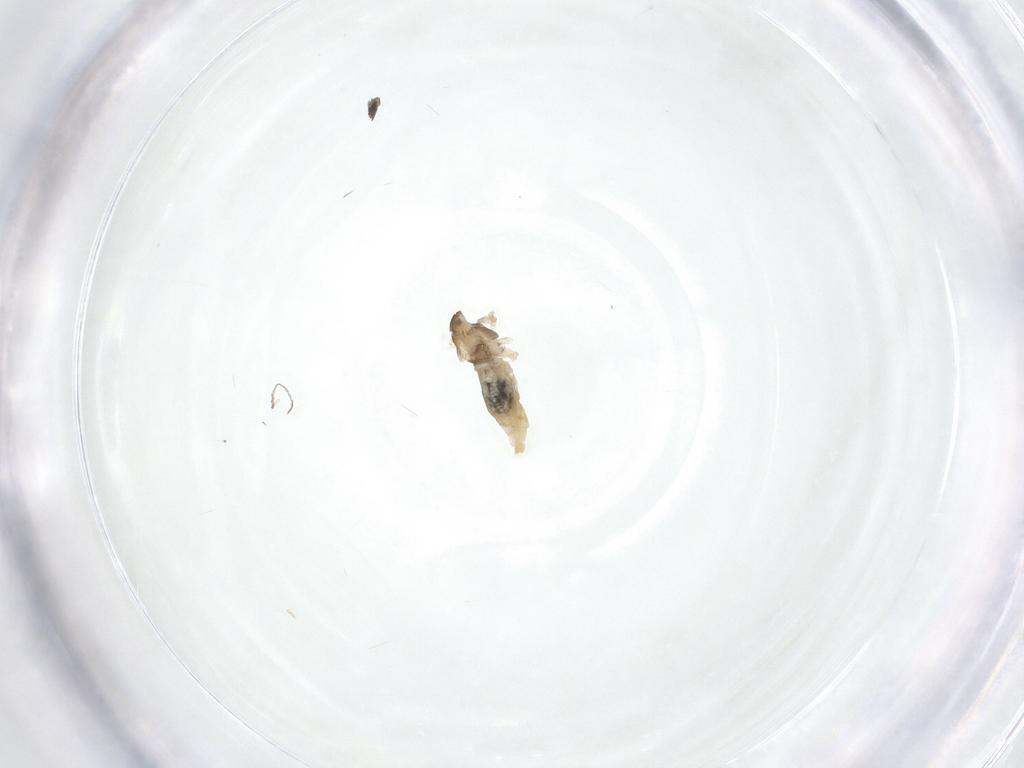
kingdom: Animalia
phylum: Arthropoda
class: Insecta
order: Diptera
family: Cecidomyiidae
